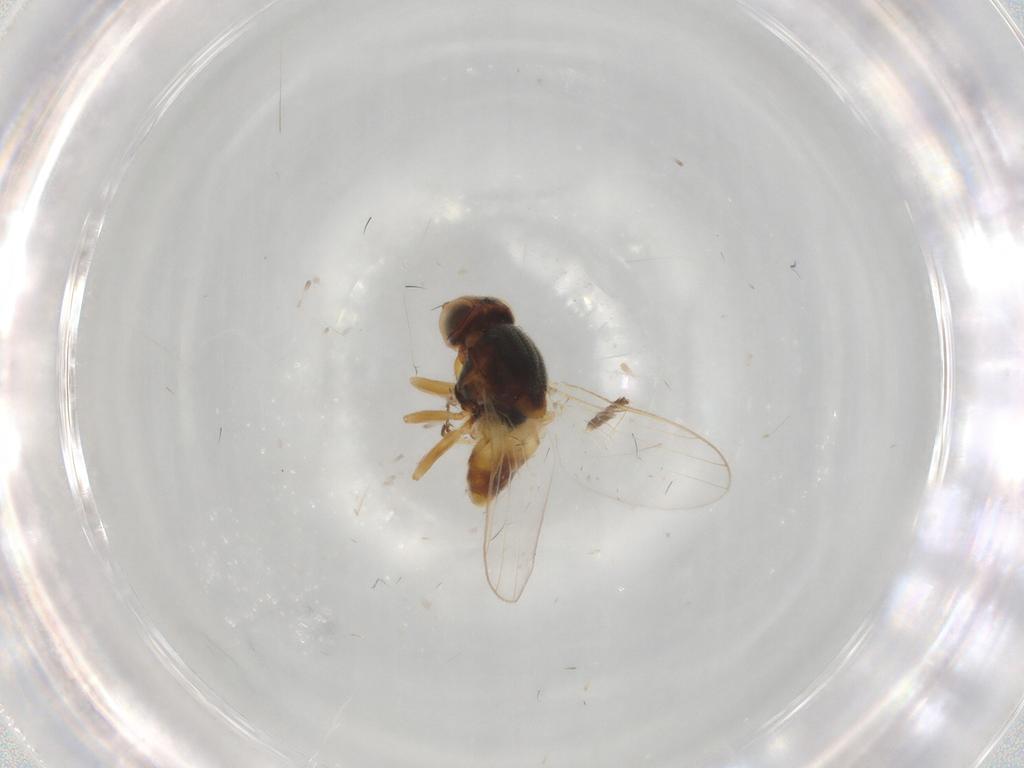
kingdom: Animalia
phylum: Arthropoda
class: Insecta
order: Diptera
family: Chloropidae
